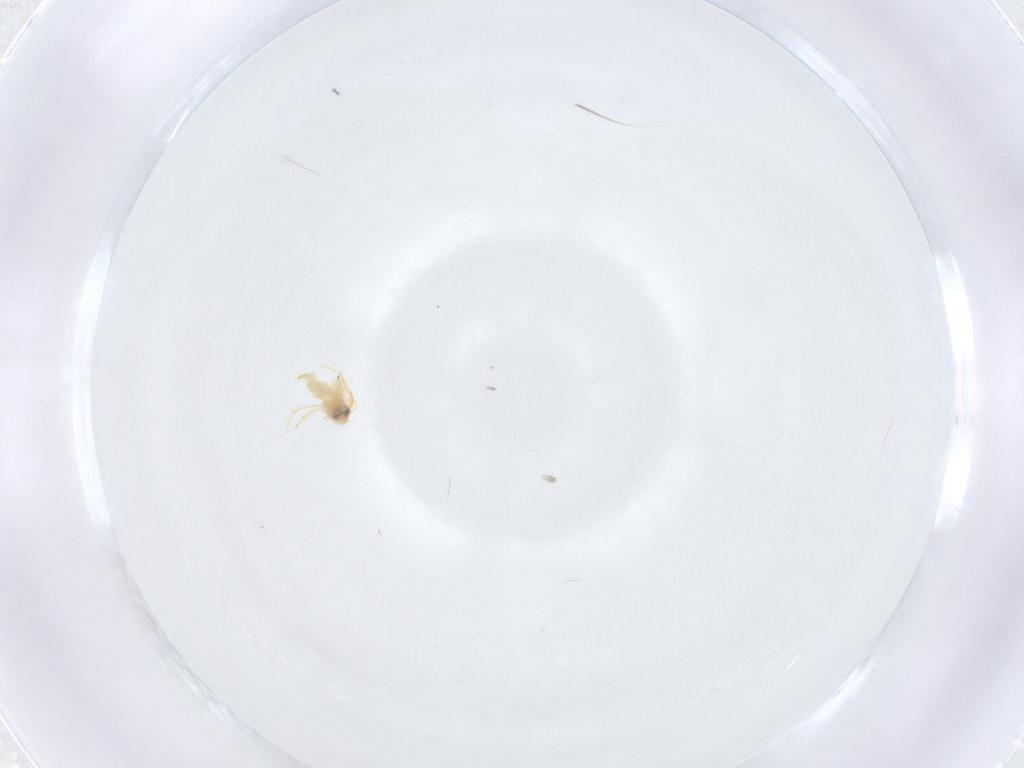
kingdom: Animalia
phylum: Arthropoda
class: Insecta
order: Hemiptera
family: Aleyrodidae
